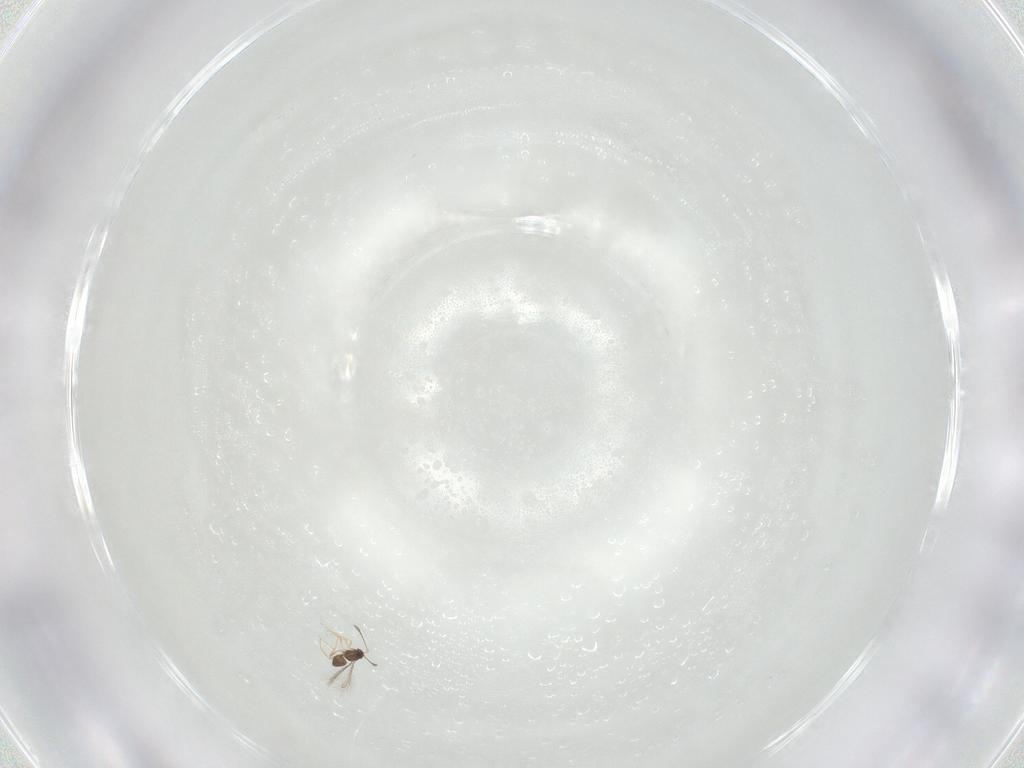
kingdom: Animalia
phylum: Arthropoda
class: Insecta
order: Hymenoptera
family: Mymaridae
